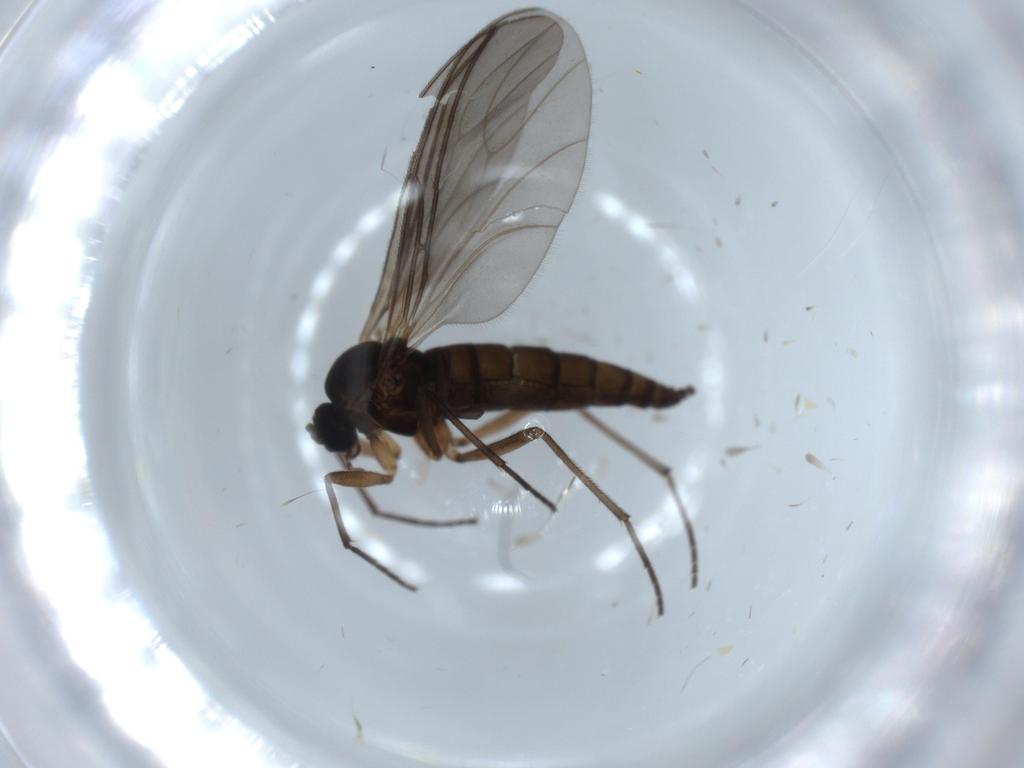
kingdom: Animalia
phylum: Arthropoda
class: Insecta
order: Diptera
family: Sciaridae
